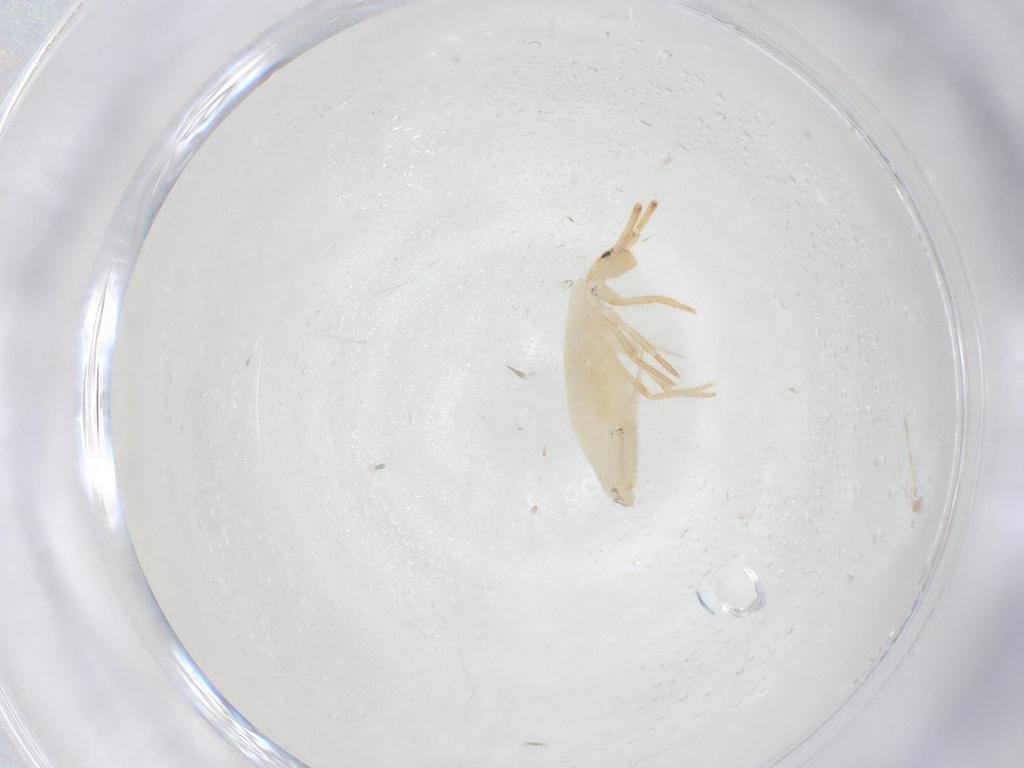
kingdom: Animalia
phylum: Arthropoda
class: Collembola
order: Entomobryomorpha
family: Entomobryidae
